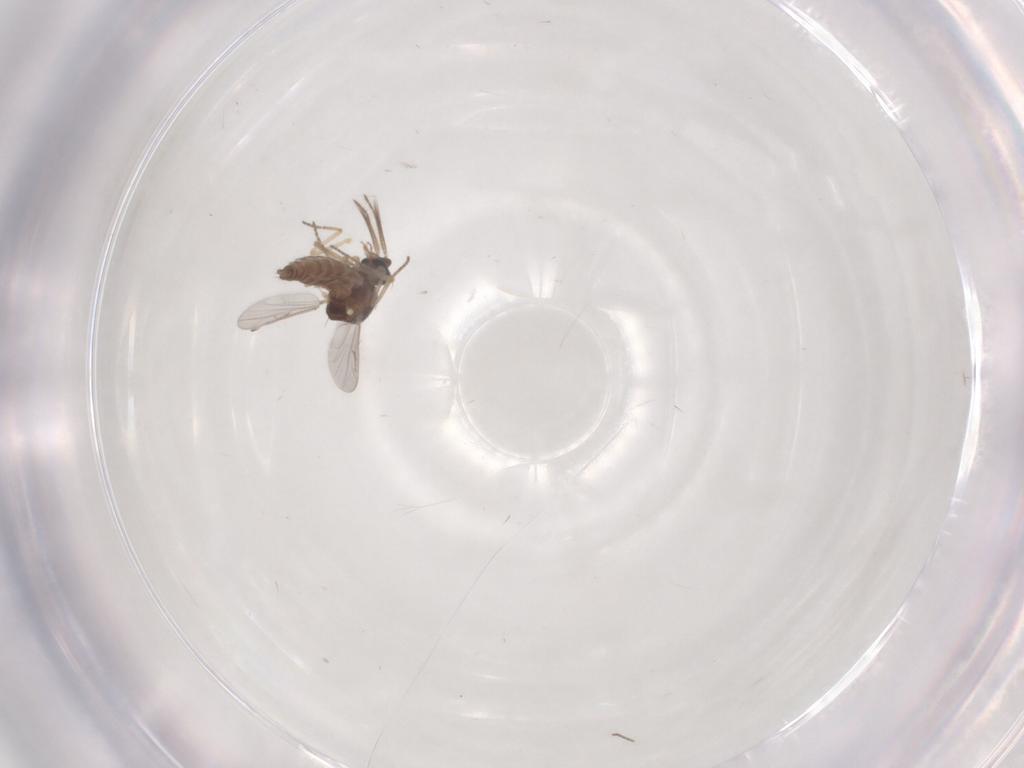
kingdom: Animalia
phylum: Arthropoda
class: Insecta
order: Diptera
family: Ceratopogonidae
